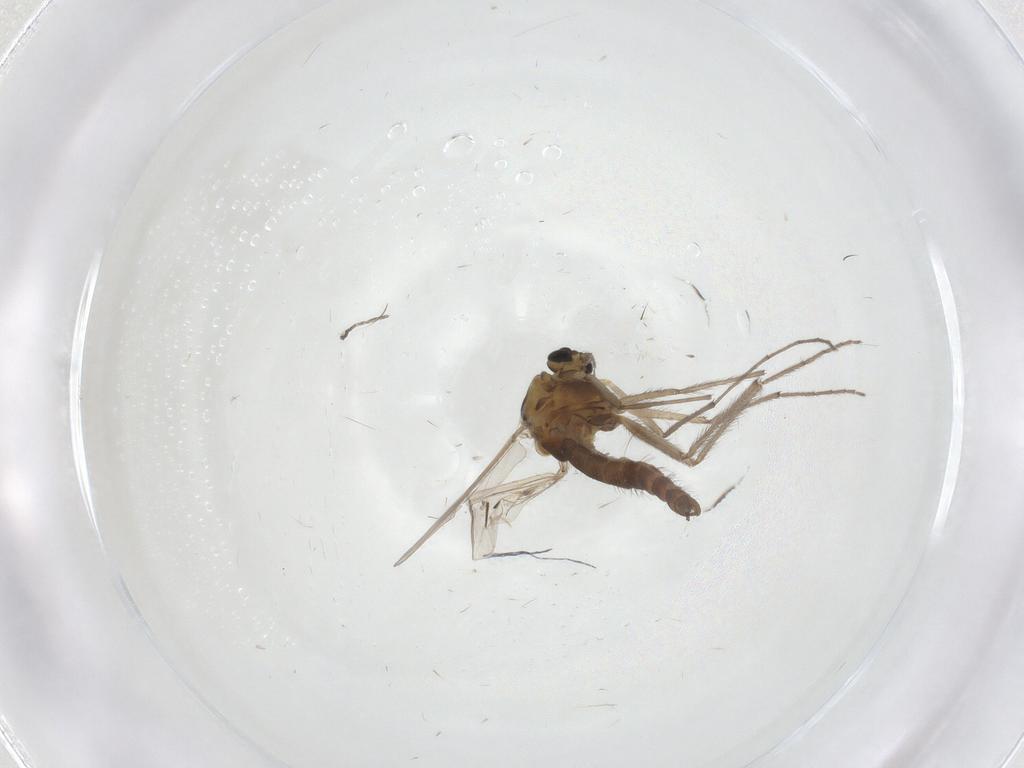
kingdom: Animalia
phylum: Arthropoda
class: Insecta
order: Diptera
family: Chironomidae
